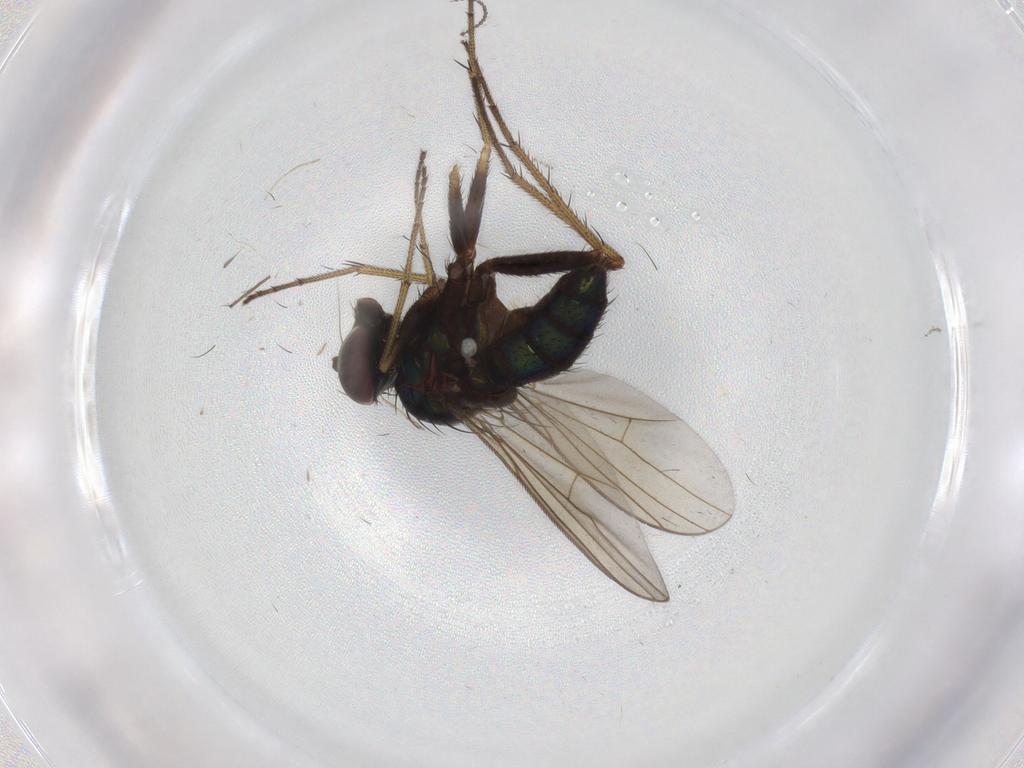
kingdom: Animalia
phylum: Arthropoda
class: Insecta
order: Diptera
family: Dolichopodidae
